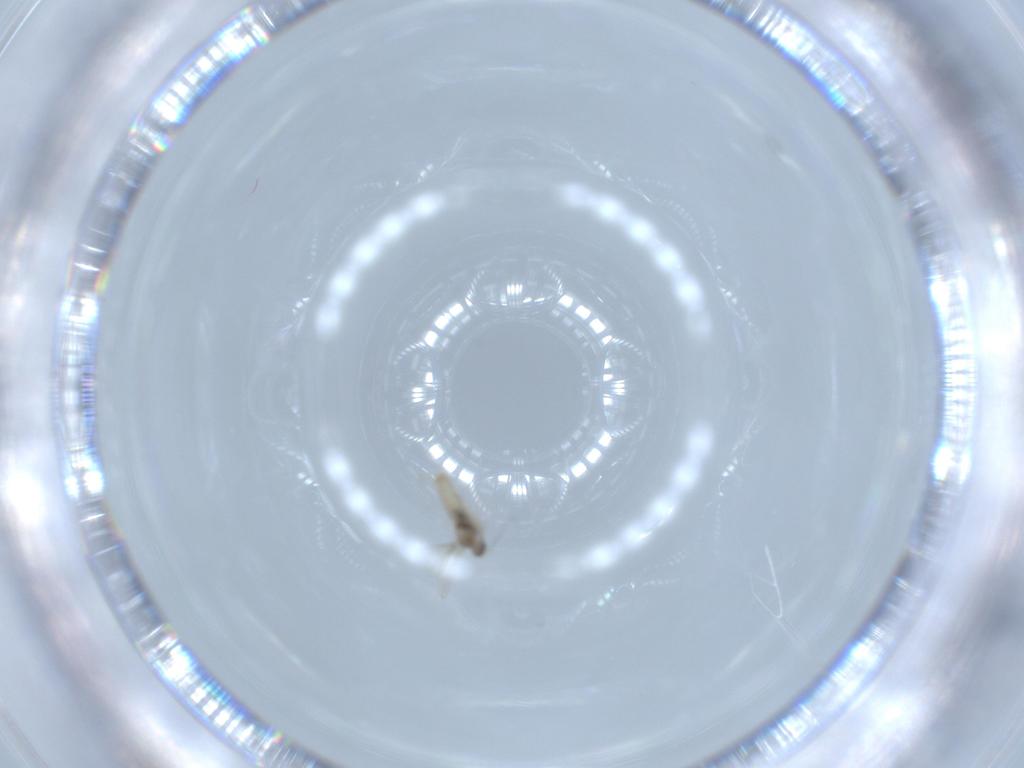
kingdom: Animalia
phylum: Arthropoda
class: Insecta
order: Diptera
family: Cecidomyiidae
